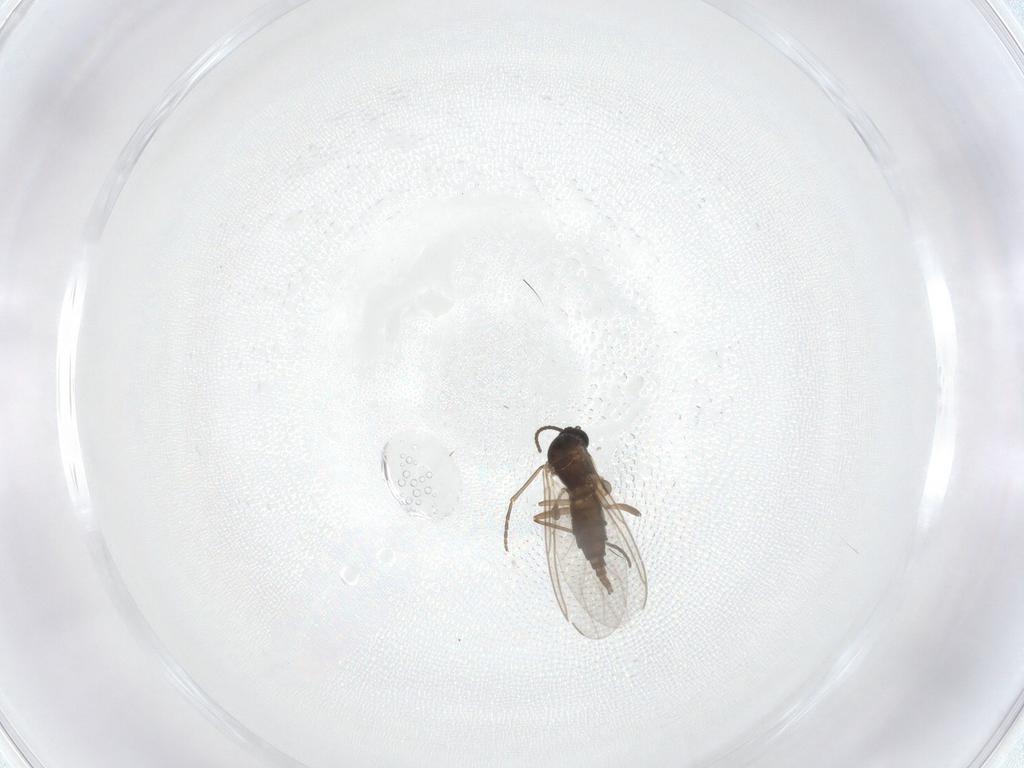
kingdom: Animalia
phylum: Arthropoda
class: Insecta
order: Diptera
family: Sciaridae
